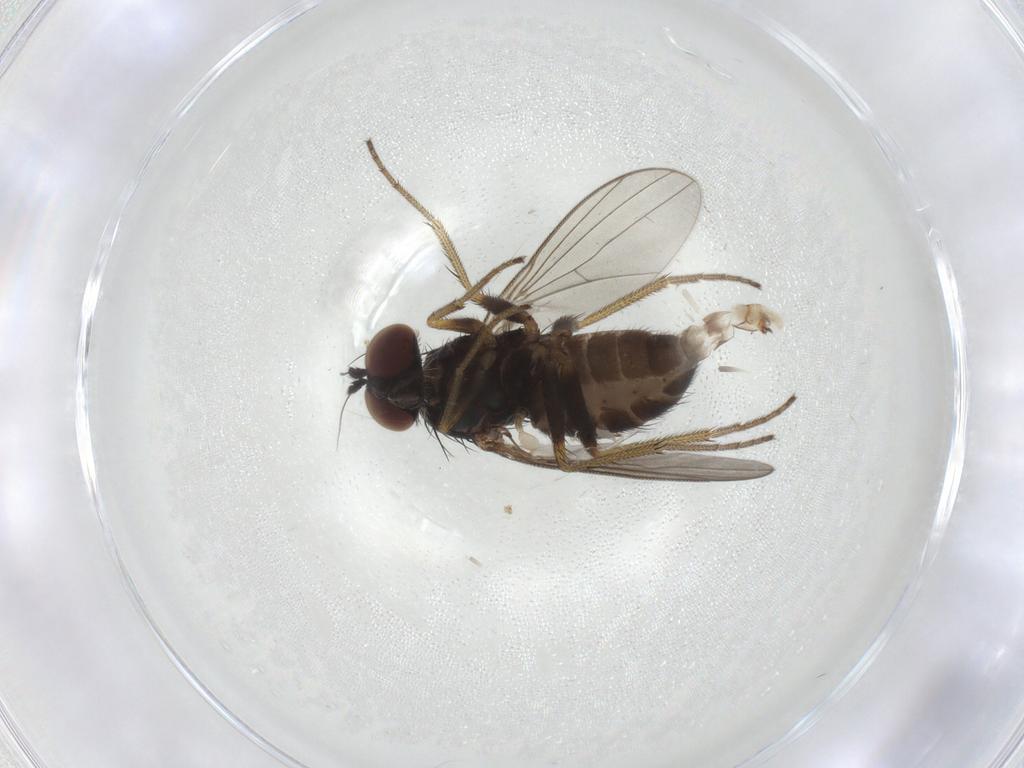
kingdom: Animalia
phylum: Arthropoda
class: Insecta
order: Diptera
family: Dolichopodidae
